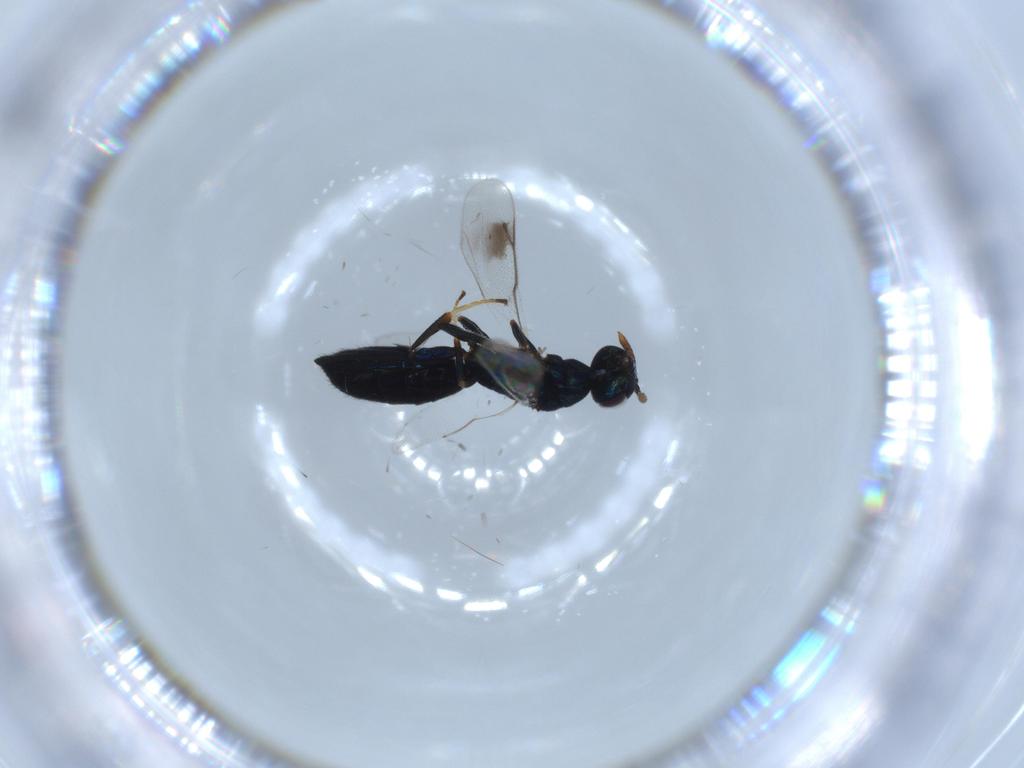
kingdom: Animalia
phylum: Arthropoda
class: Insecta
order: Hymenoptera
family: Cleonyminae
